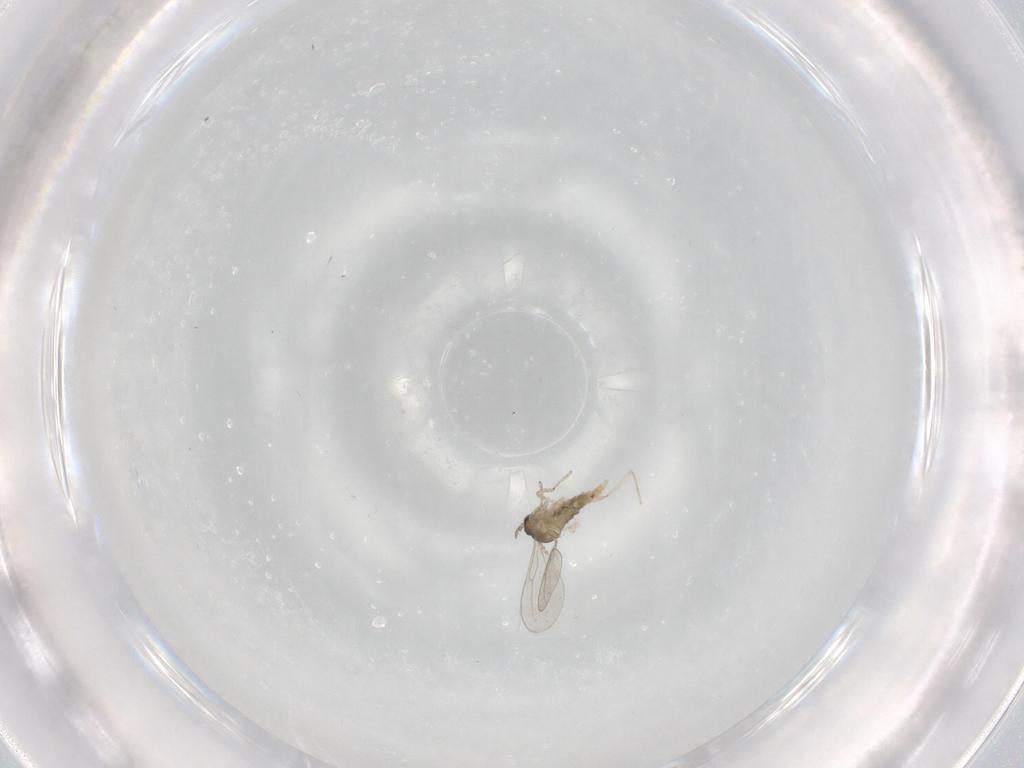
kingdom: Animalia
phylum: Arthropoda
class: Insecta
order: Diptera
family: Cecidomyiidae
